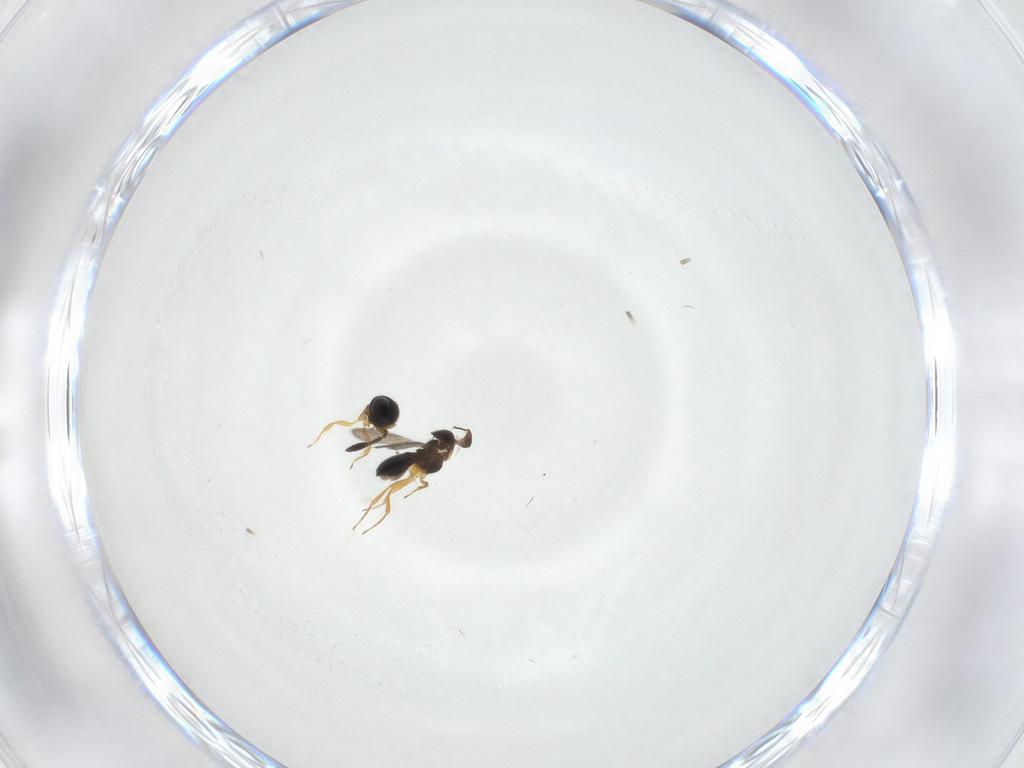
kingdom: Animalia
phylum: Arthropoda
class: Insecta
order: Hymenoptera
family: Scelionidae
